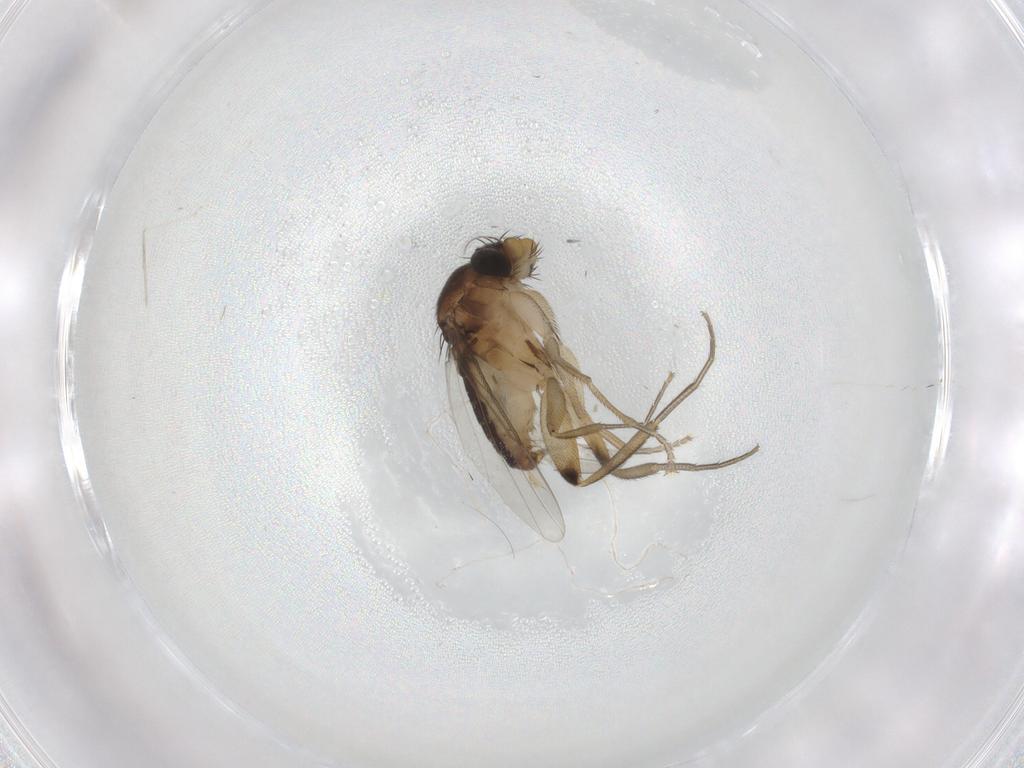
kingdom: Animalia
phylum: Arthropoda
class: Insecta
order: Diptera
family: Phoridae
